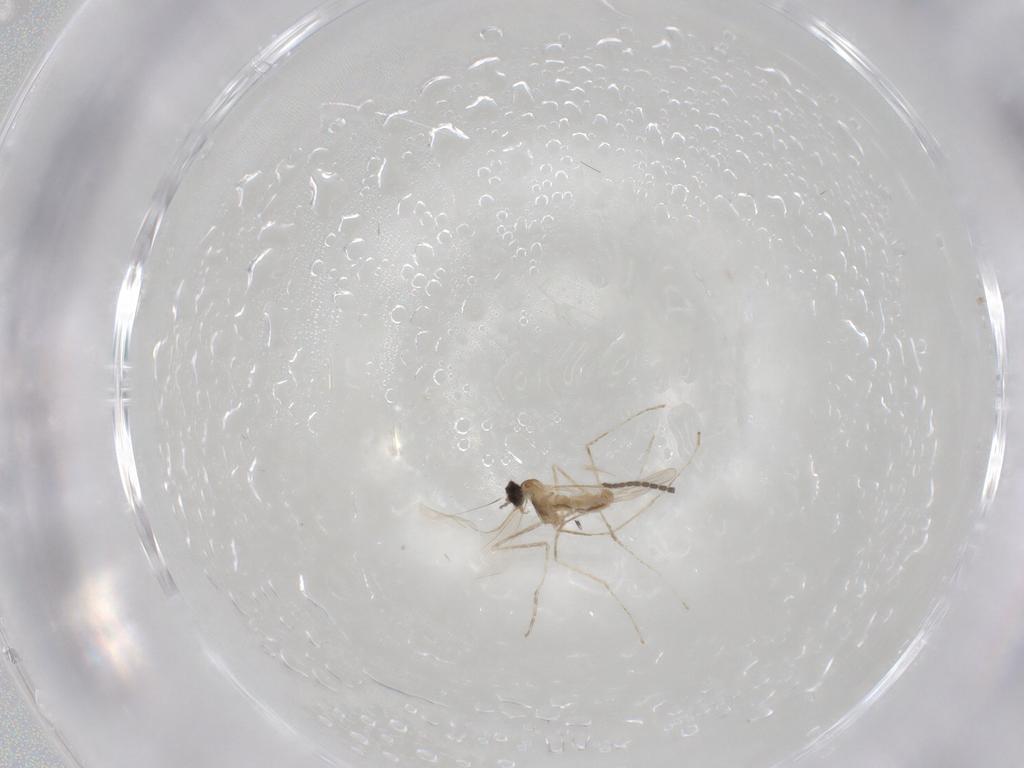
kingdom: Animalia
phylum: Arthropoda
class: Insecta
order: Diptera
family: Cecidomyiidae
